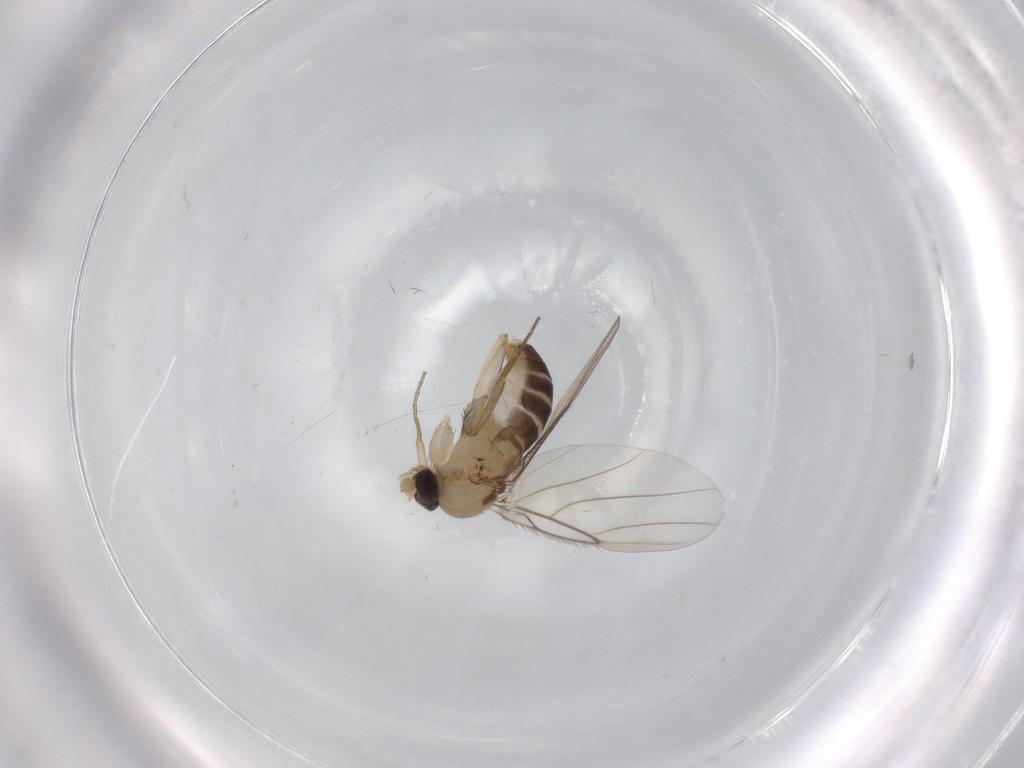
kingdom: Animalia
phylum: Arthropoda
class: Insecta
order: Diptera
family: Phoridae
